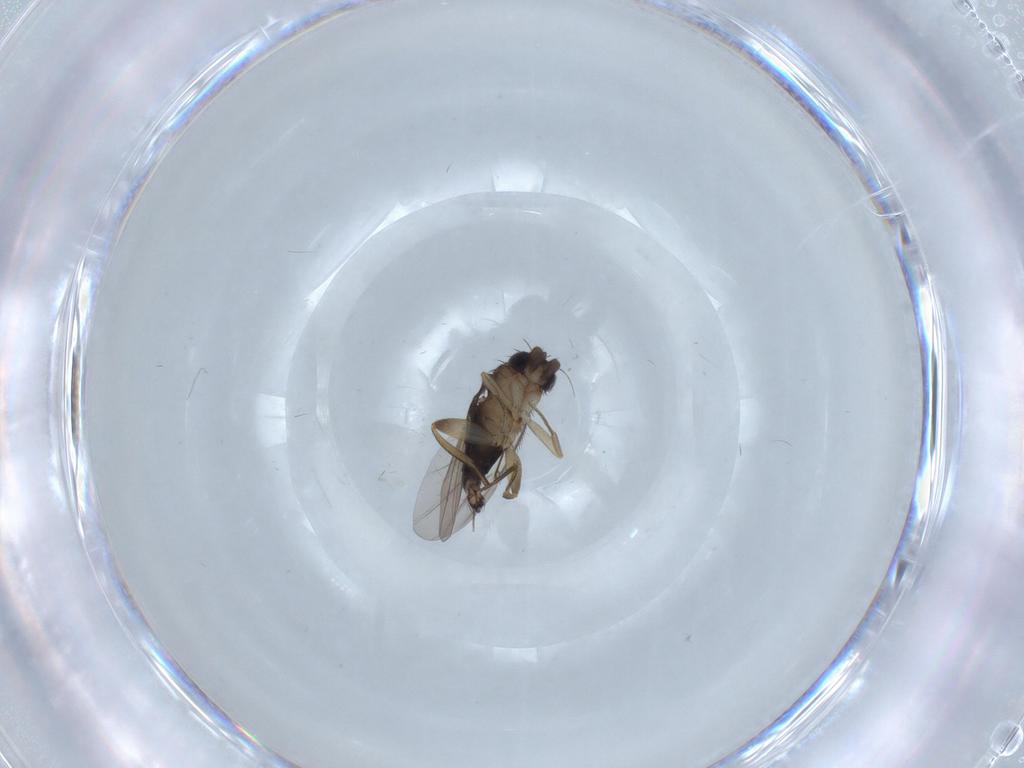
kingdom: Animalia
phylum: Arthropoda
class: Insecta
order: Diptera
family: Phoridae
